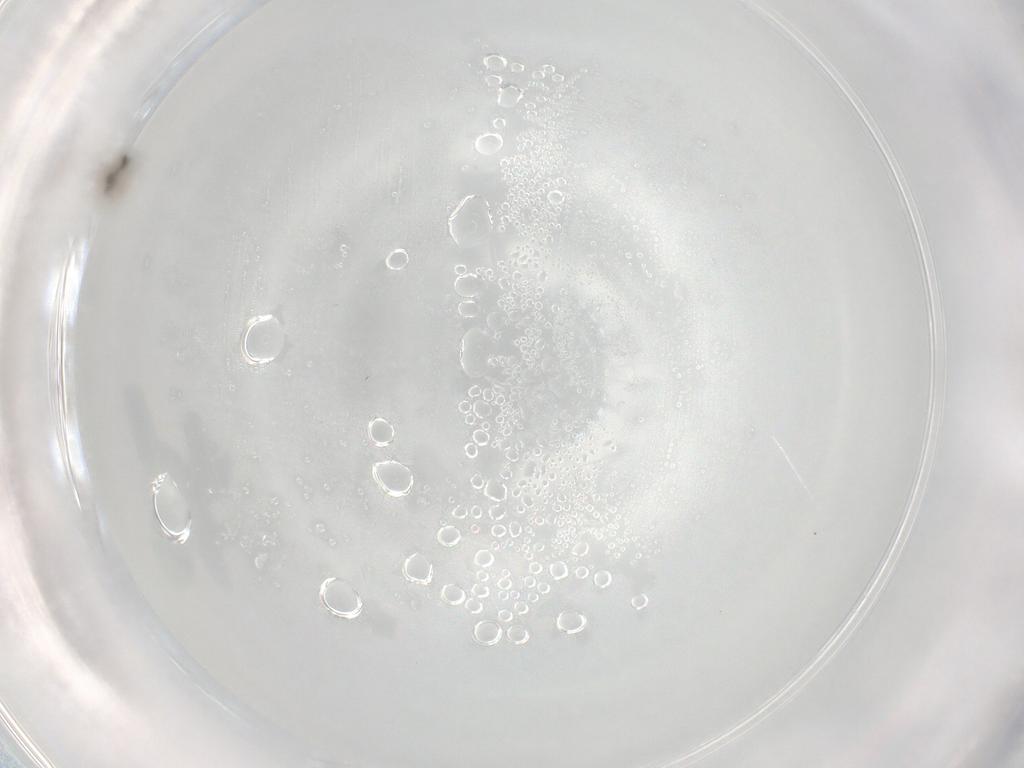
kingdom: Animalia
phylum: Arthropoda
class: Insecta
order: Diptera
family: Cecidomyiidae
